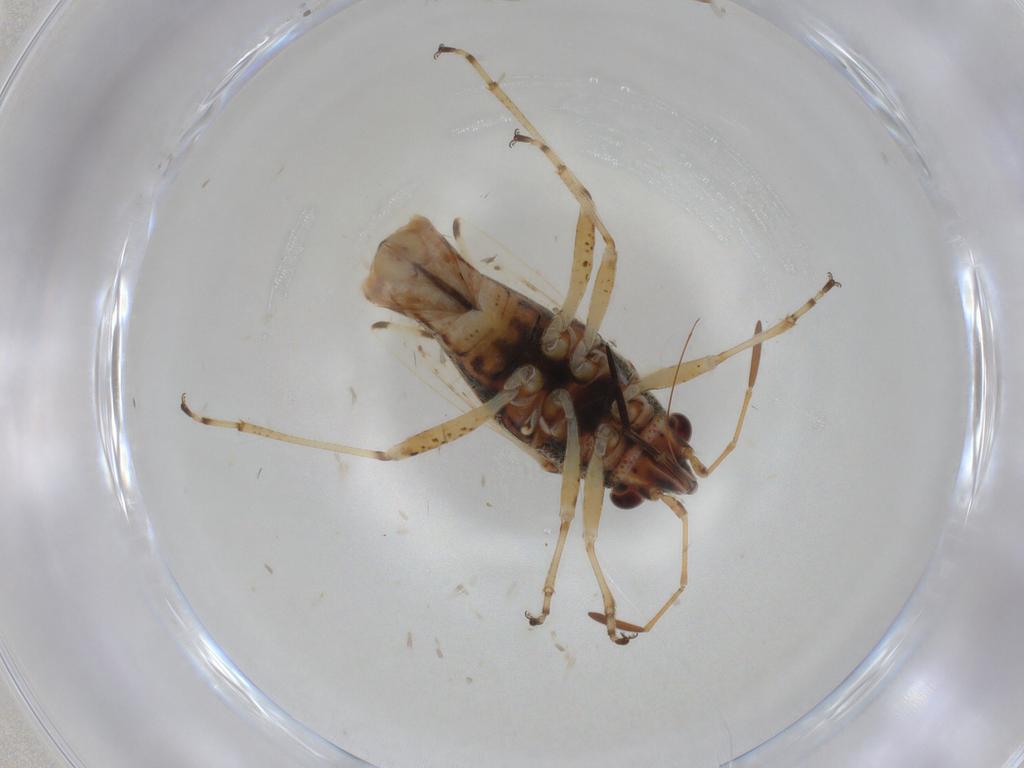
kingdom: Animalia
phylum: Arthropoda
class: Insecta
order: Hemiptera
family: Lygaeidae
